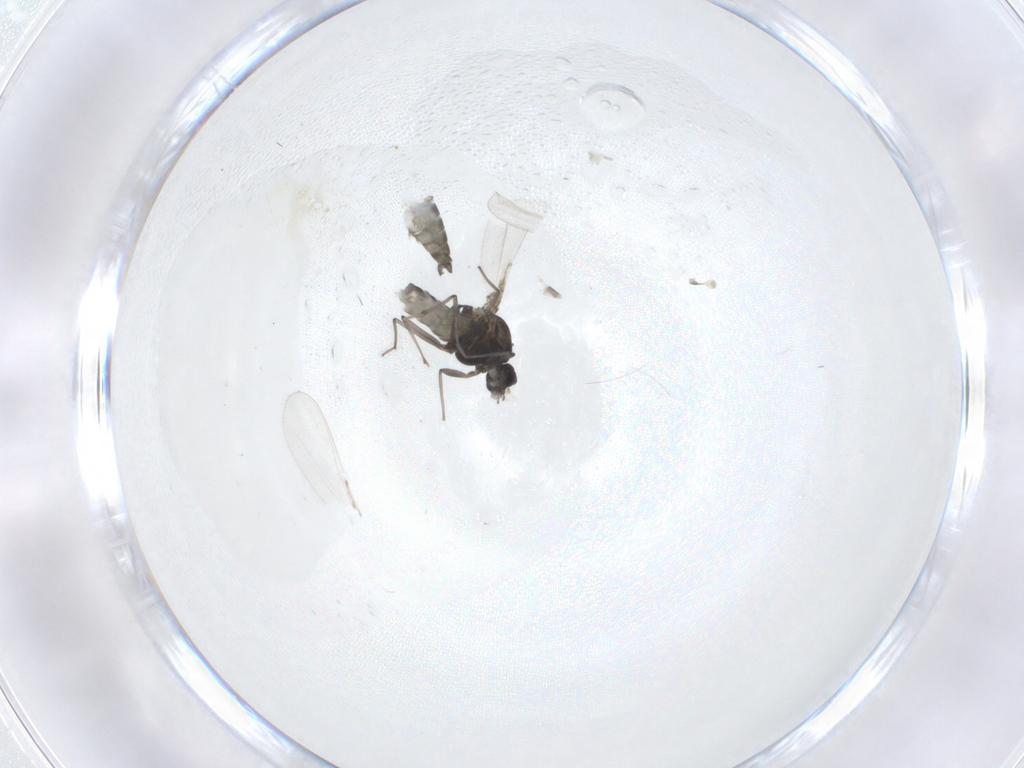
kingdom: Animalia
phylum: Arthropoda
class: Insecta
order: Diptera
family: Chironomidae
